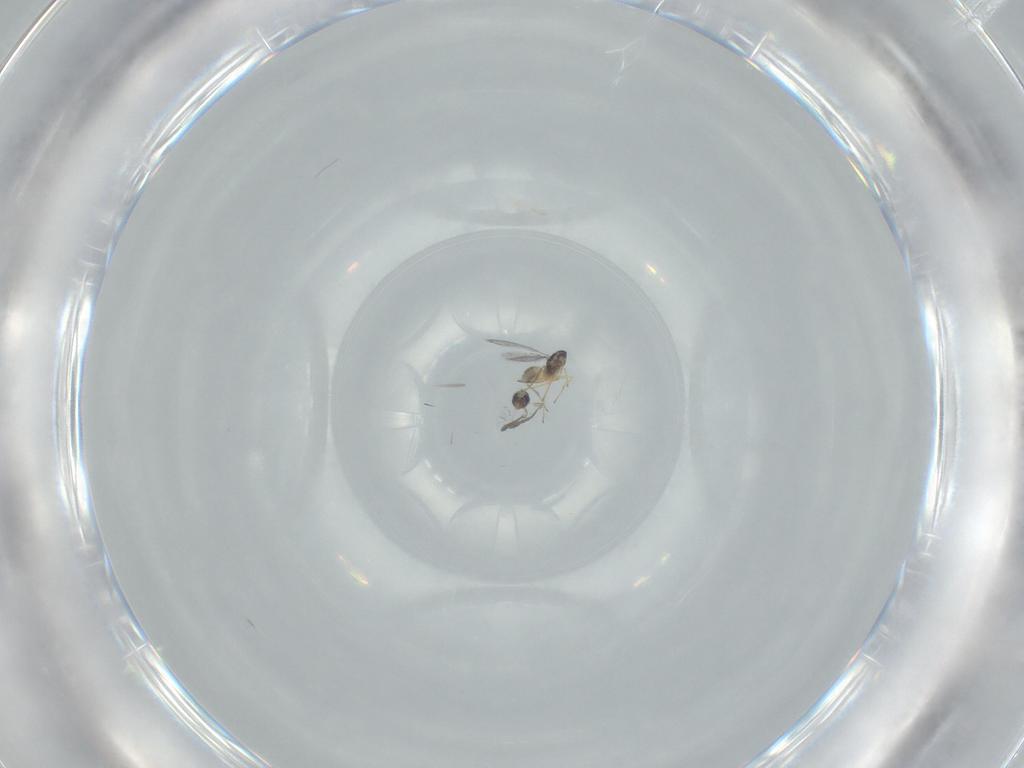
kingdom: Animalia
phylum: Arthropoda
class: Insecta
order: Hymenoptera
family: Mymaridae
